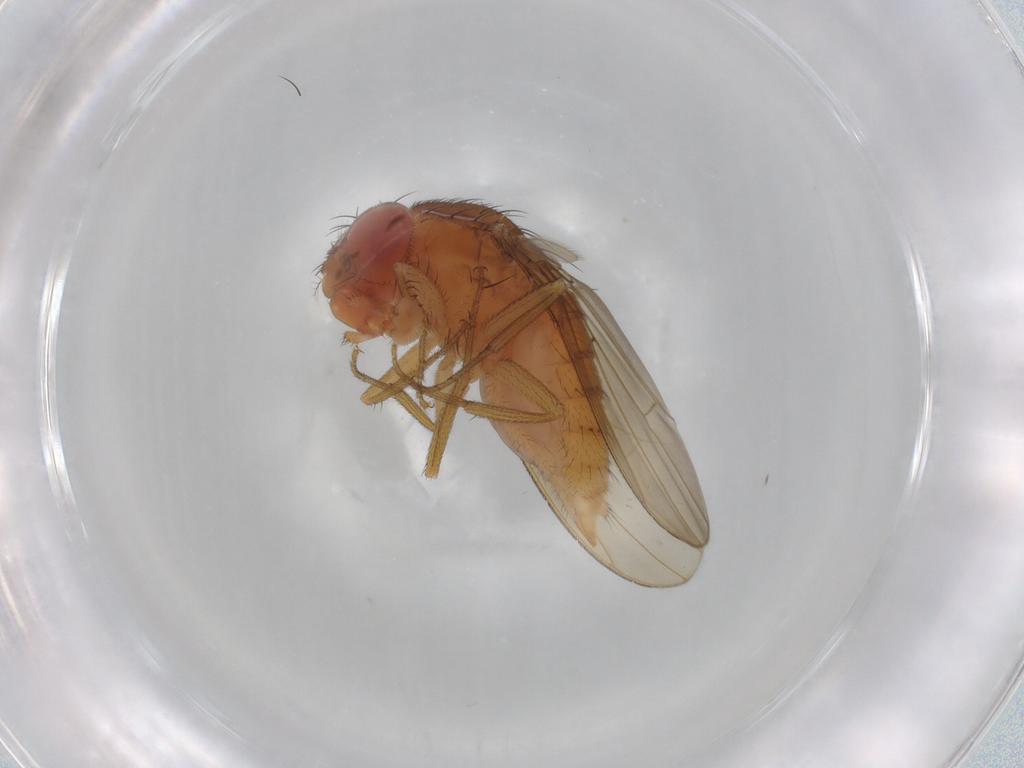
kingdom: Animalia
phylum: Arthropoda
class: Insecta
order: Diptera
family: Drosophilidae
